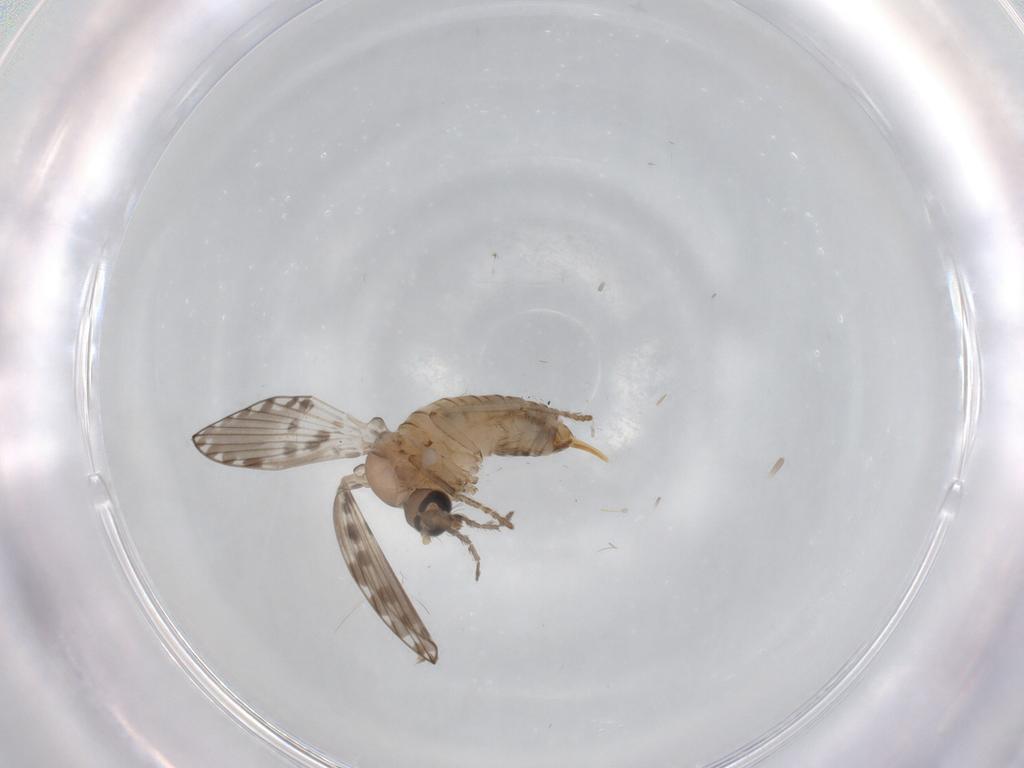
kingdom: Animalia
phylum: Arthropoda
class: Insecta
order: Diptera
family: Psychodidae
